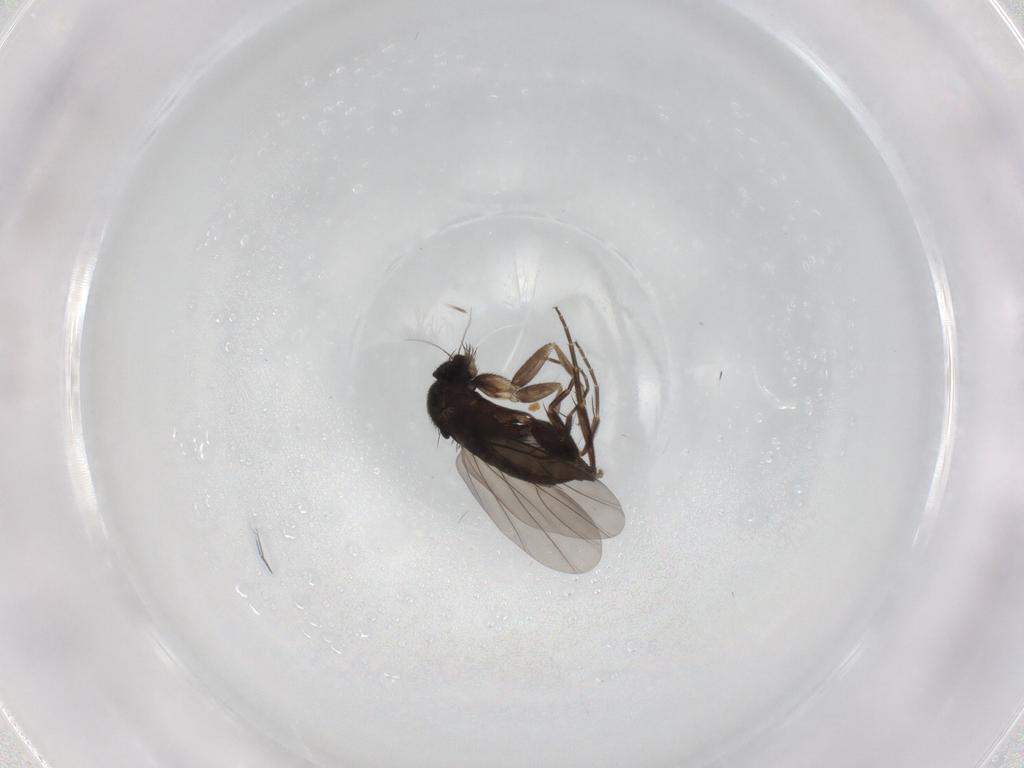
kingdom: Animalia
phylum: Arthropoda
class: Insecta
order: Diptera
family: Phoridae
